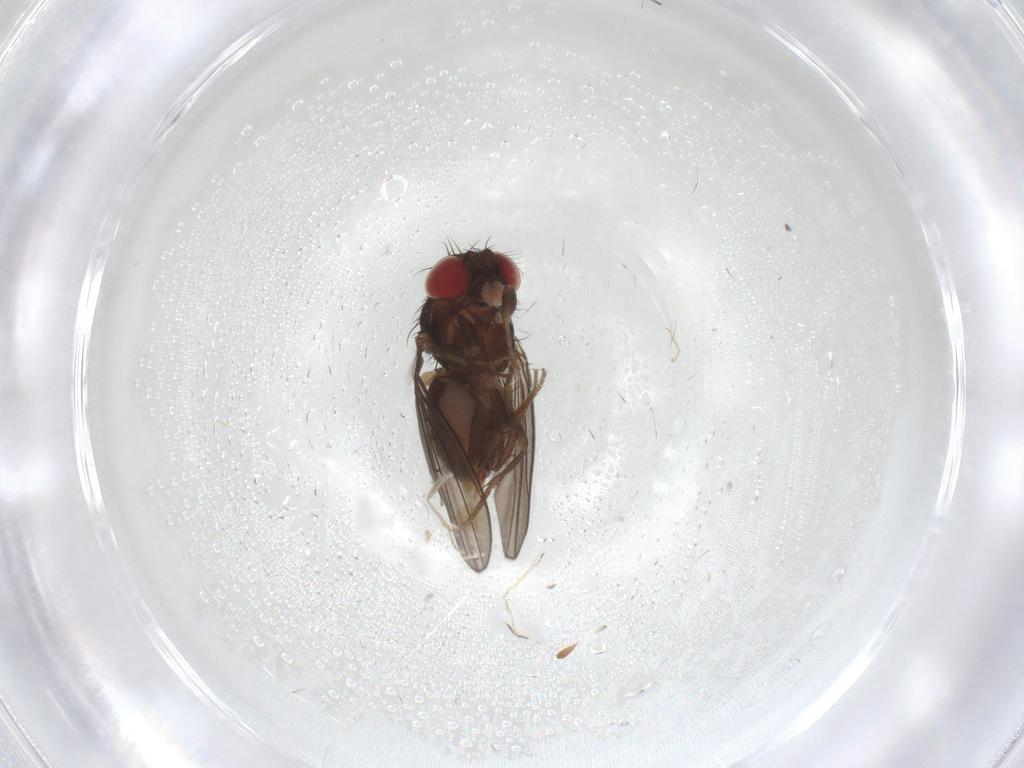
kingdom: Animalia
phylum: Arthropoda
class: Insecta
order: Diptera
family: Drosophilidae
